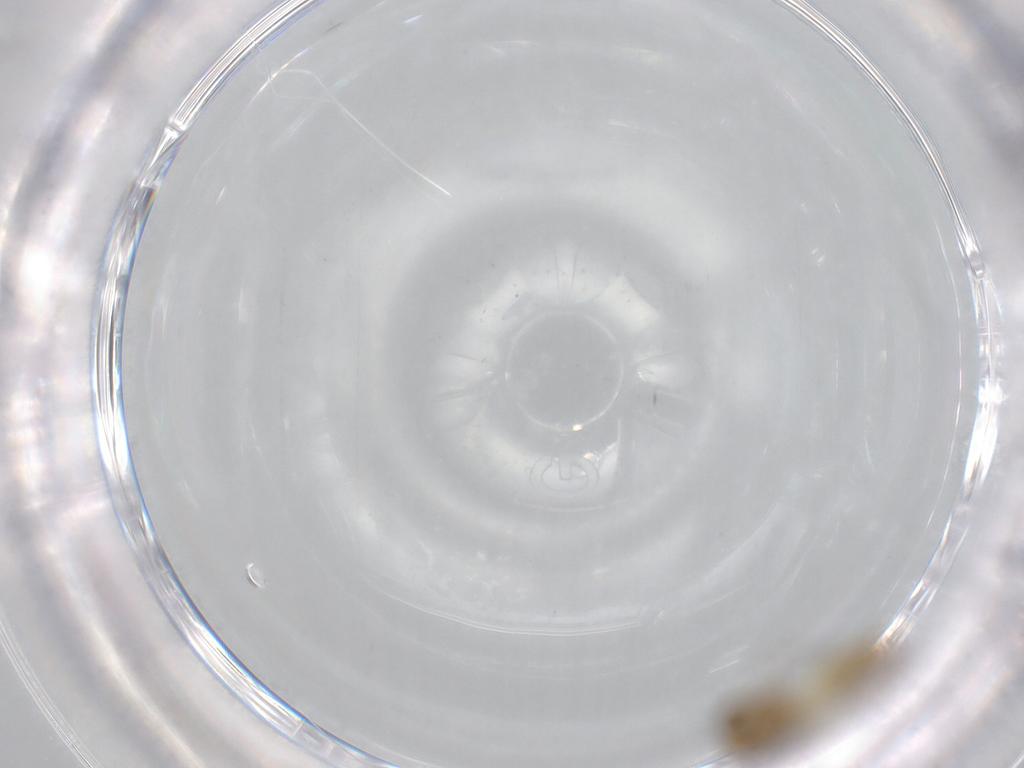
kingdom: Animalia
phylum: Arthropoda
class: Insecta
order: Diptera
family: Chironomidae
